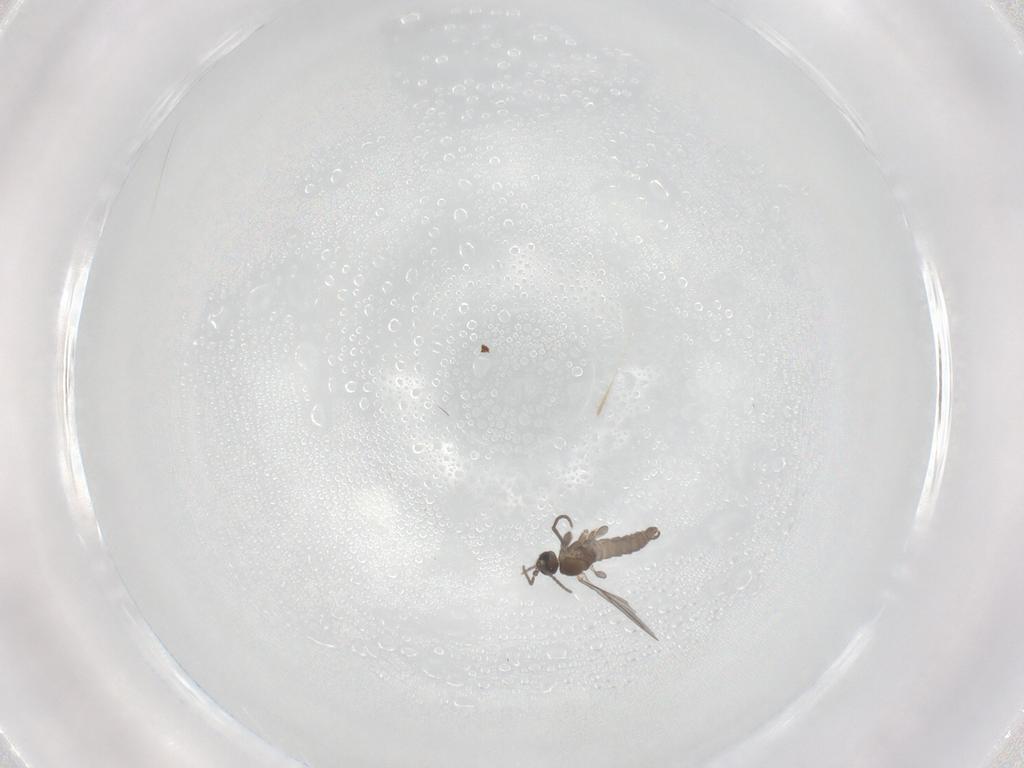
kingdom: Animalia
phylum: Arthropoda
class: Insecta
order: Diptera
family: Sciaridae
